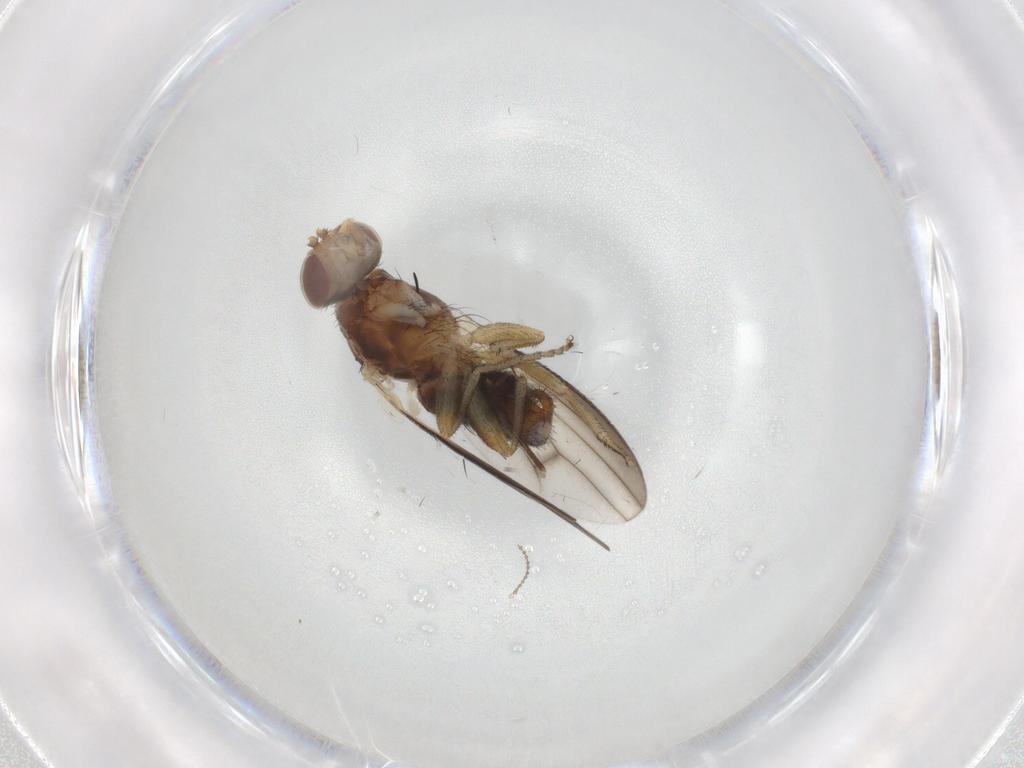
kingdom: Animalia
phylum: Arthropoda
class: Insecta
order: Diptera
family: Heleomyzidae
